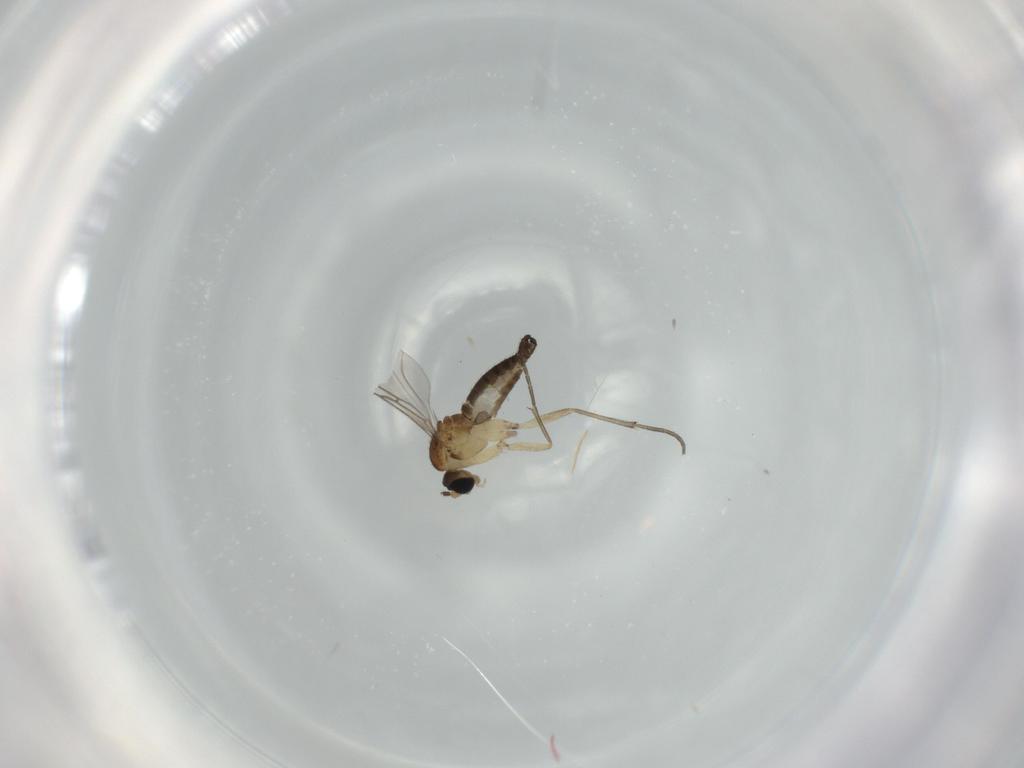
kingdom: Animalia
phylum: Arthropoda
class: Insecta
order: Diptera
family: Sciaridae
